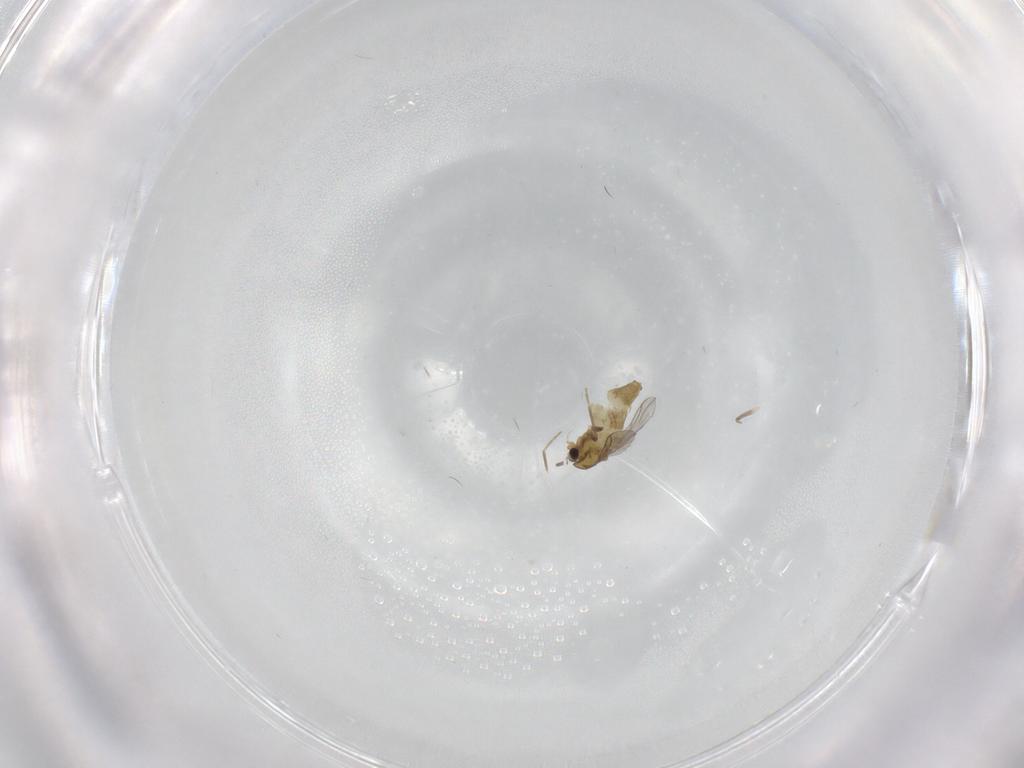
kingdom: Animalia
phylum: Arthropoda
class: Insecta
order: Diptera
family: Chironomidae
